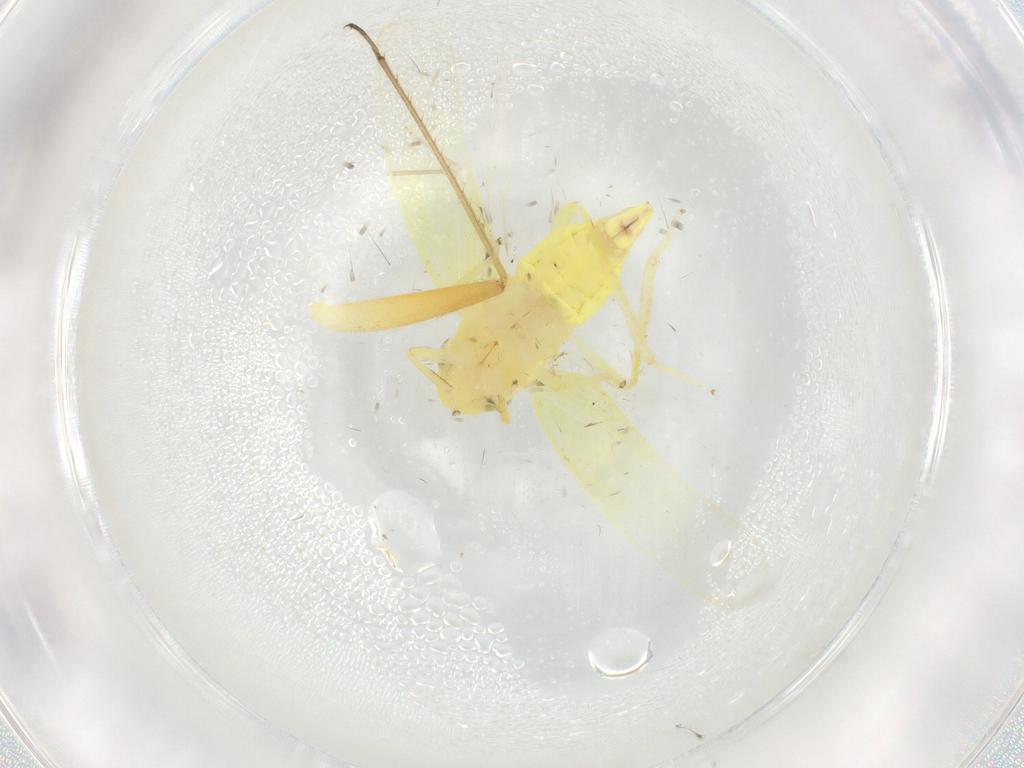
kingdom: Animalia
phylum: Arthropoda
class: Insecta
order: Hemiptera
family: Cicadellidae
